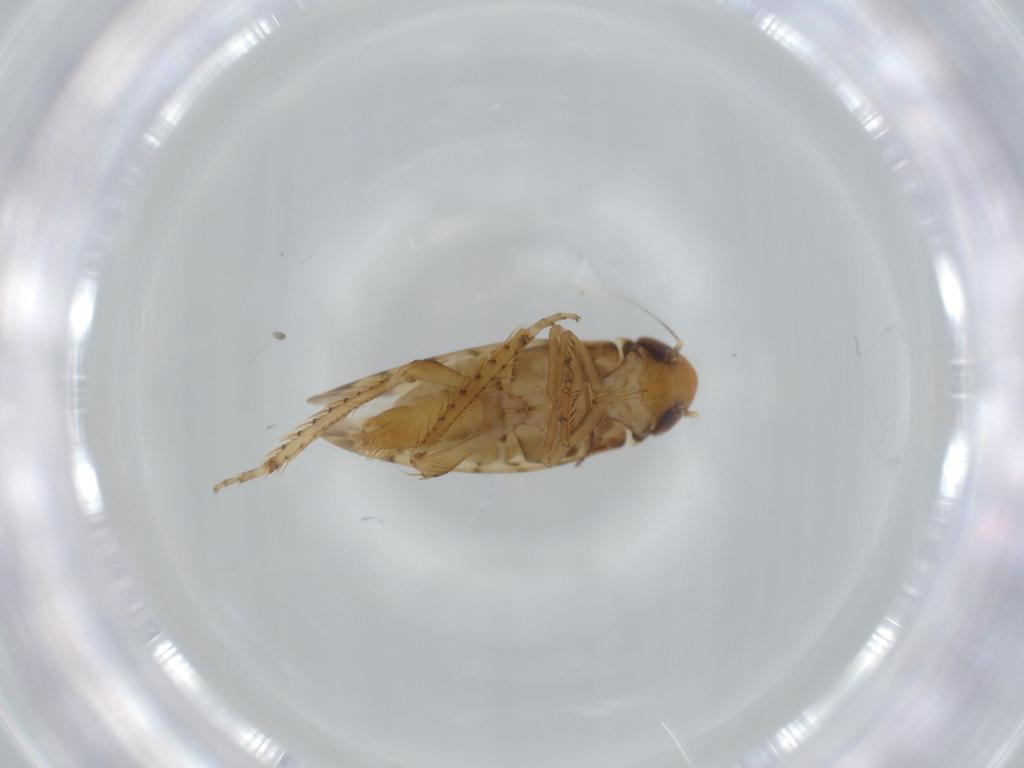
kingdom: Animalia
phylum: Arthropoda
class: Insecta
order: Hemiptera
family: Cicadellidae
